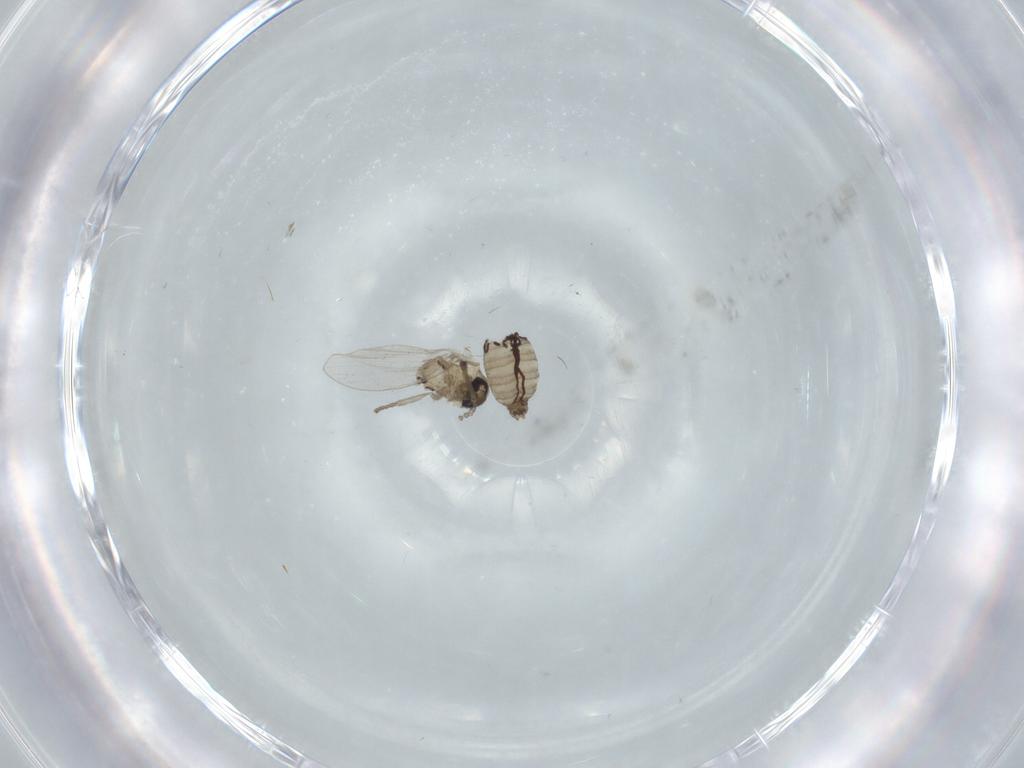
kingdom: Animalia
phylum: Arthropoda
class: Insecta
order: Diptera
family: Psychodidae
